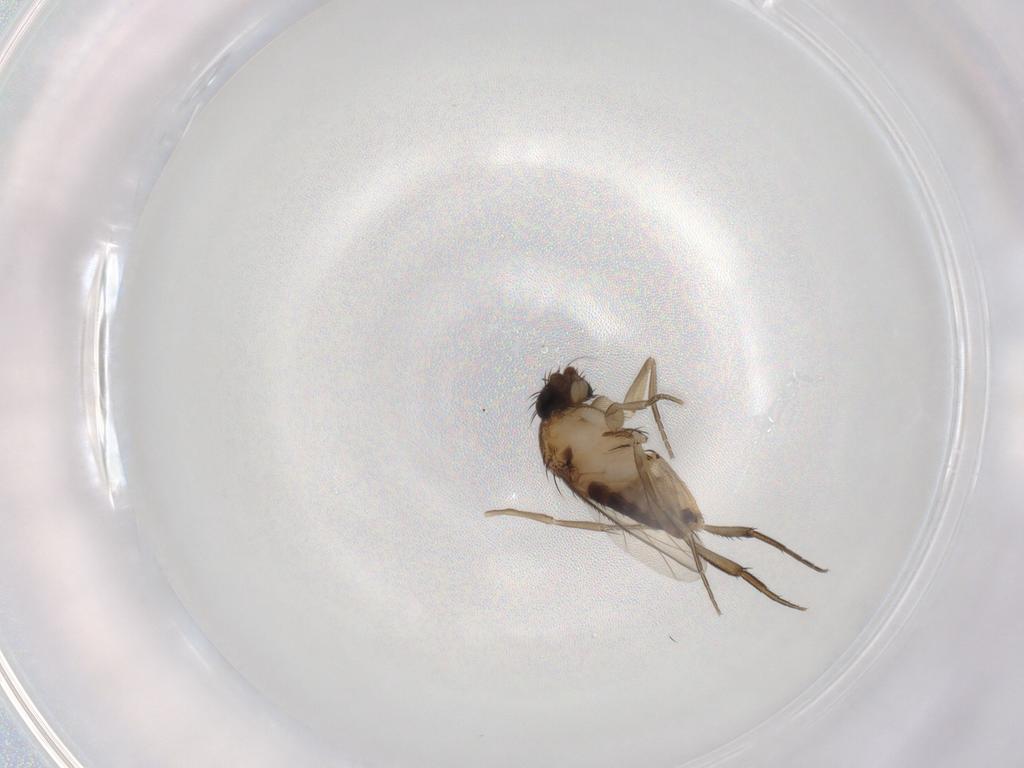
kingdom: Animalia
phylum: Arthropoda
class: Insecta
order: Diptera
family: Phoridae
